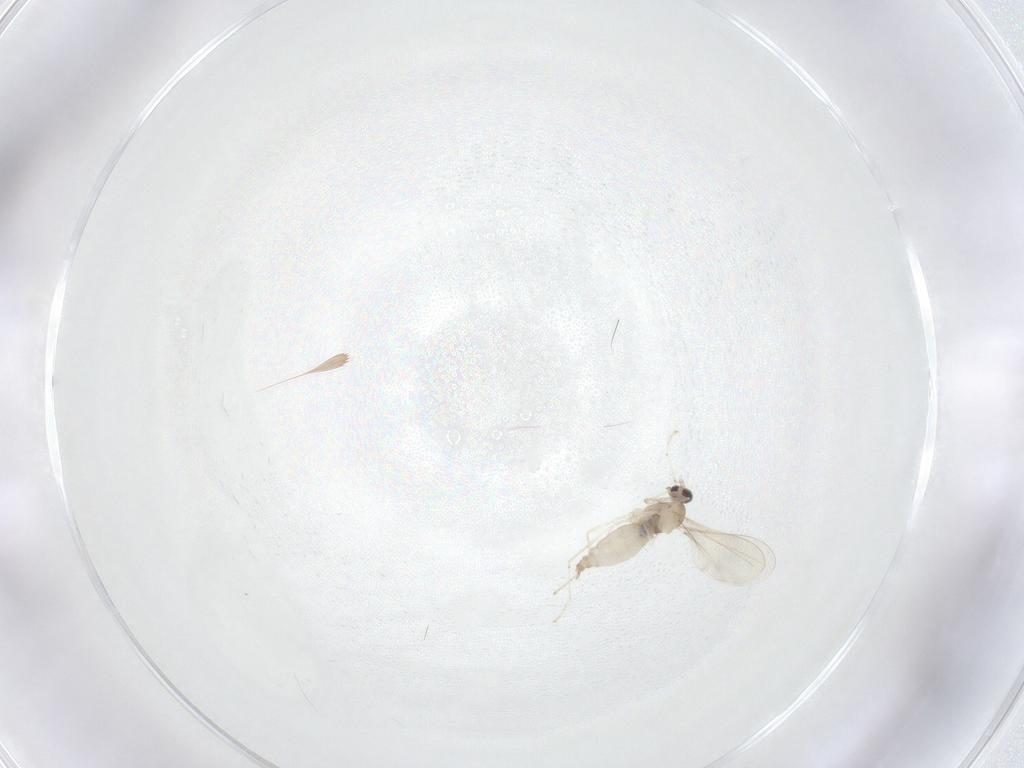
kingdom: Animalia
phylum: Arthropoda
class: Insecta
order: Diptera
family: Cecidomyiidae
